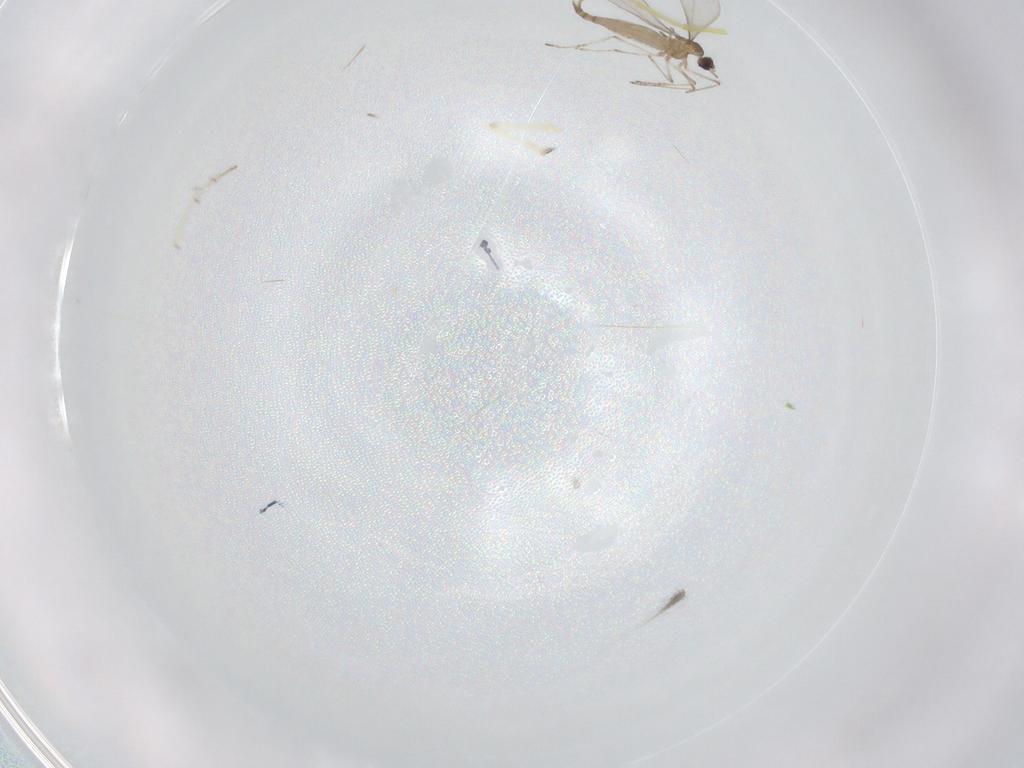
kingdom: Animalia
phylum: Arthropoda
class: Insecta
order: Diptera
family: Cecidomyiidae
